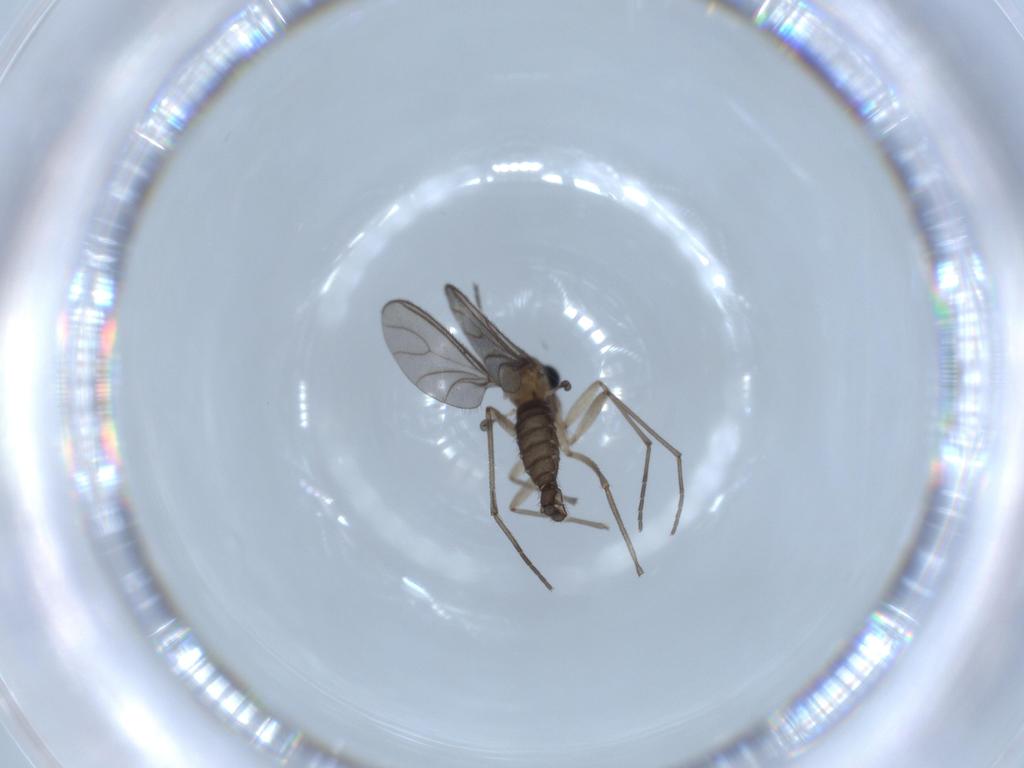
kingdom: Animalia
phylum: Arthropoda
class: Insecta
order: Diptera
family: Sciaridae
